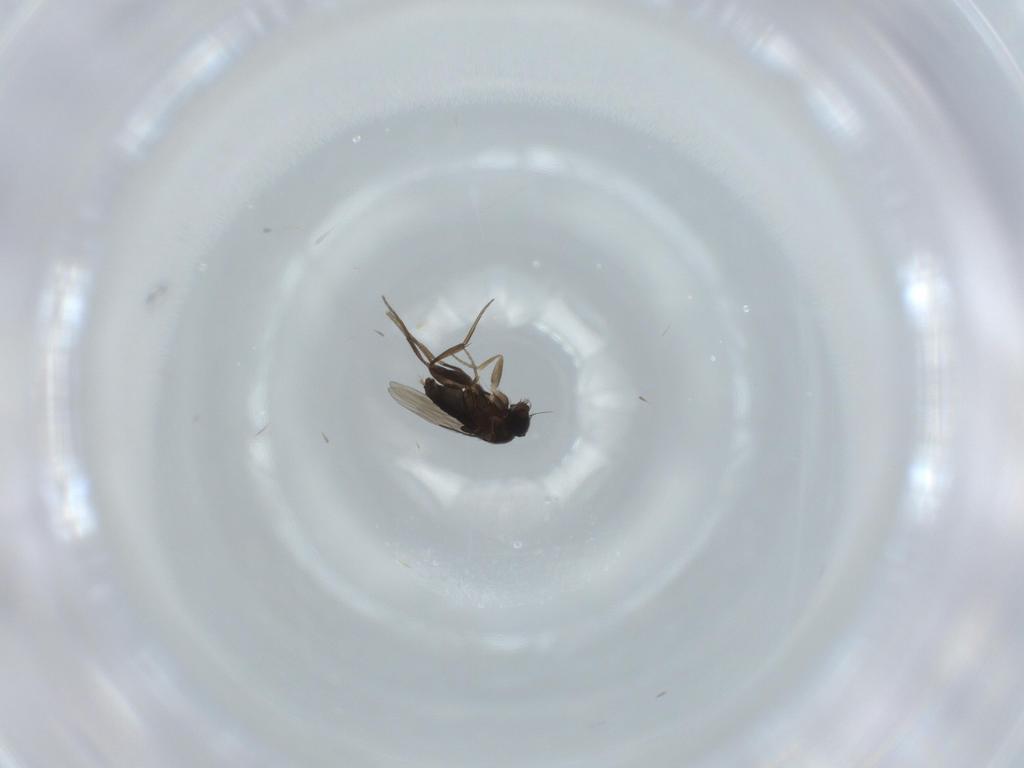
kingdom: Animalia
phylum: Arthropoda
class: Insecta
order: Diptera
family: Phoridae
